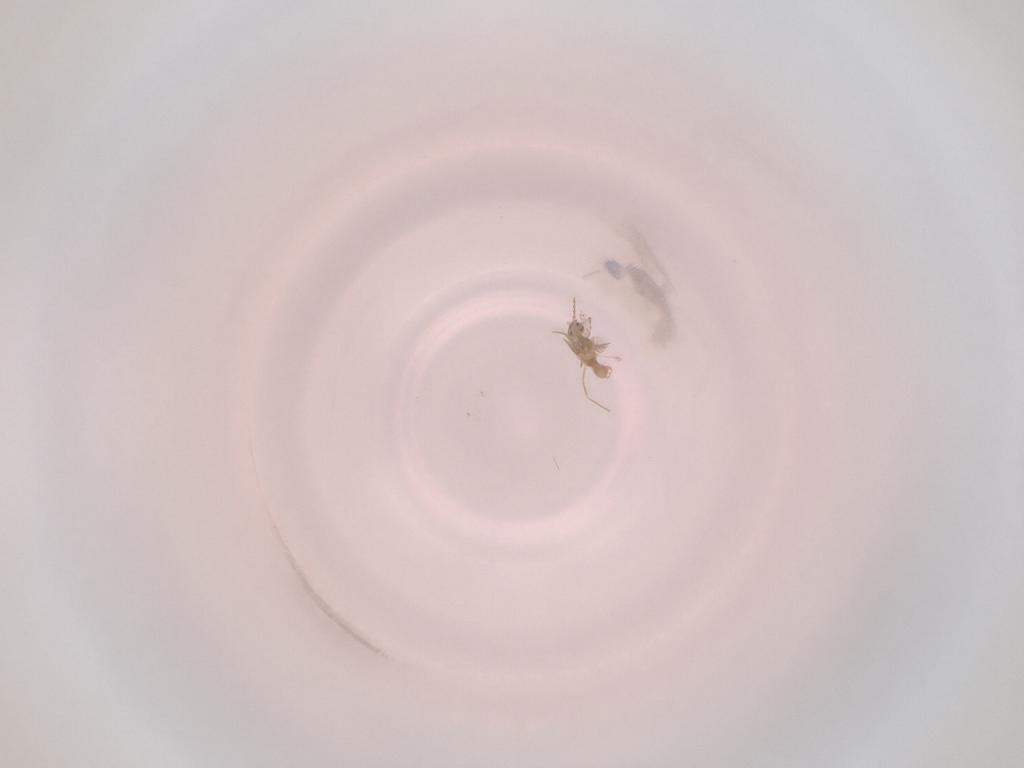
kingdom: Animalia
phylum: Arthropoda
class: Insecta
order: Diptera
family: Cecidomyiidae
